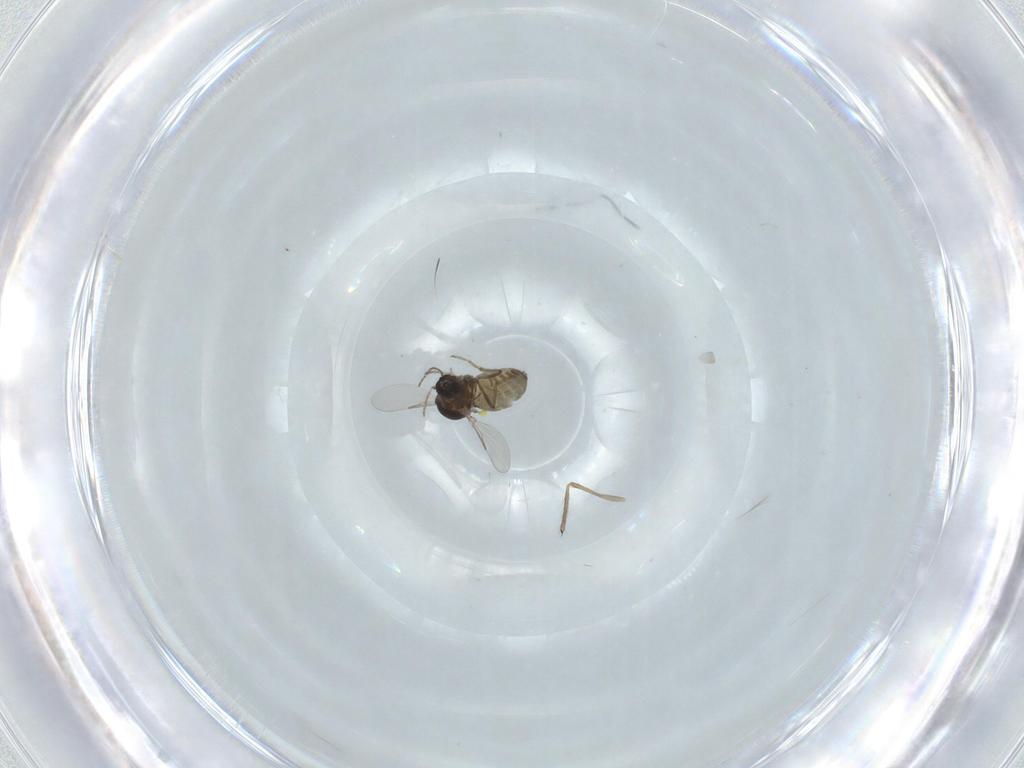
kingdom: Animalia
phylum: Arthropoda
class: Insecta
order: Diptera
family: Ceratopogonidae
